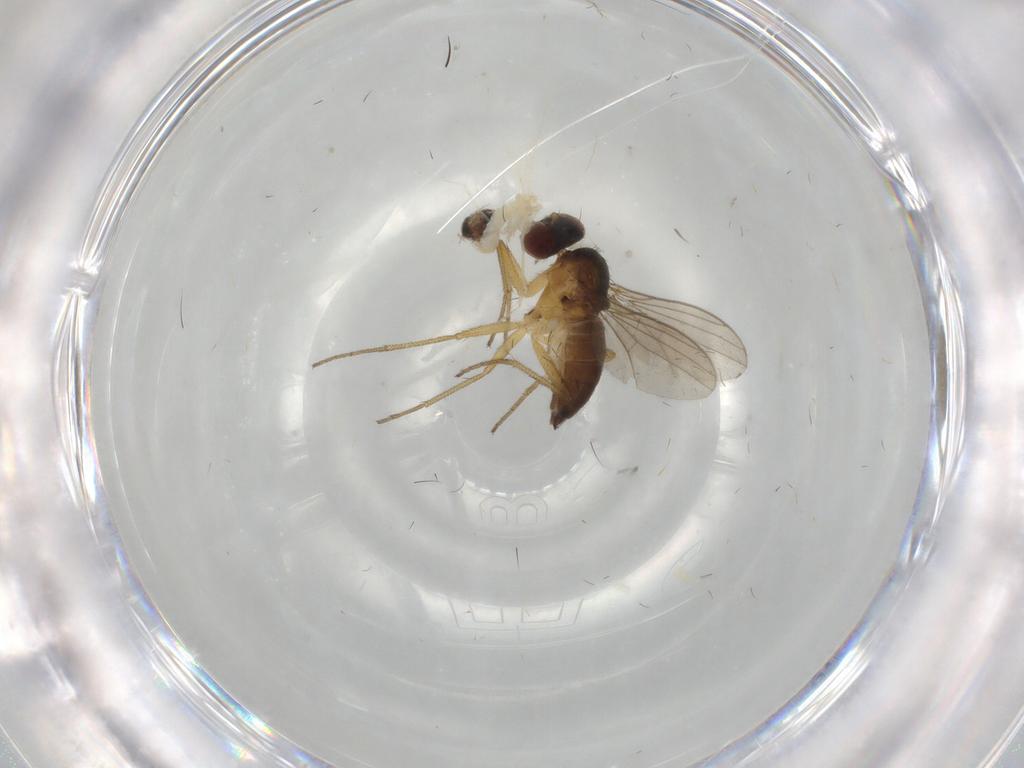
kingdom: Animalia
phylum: Arthropoda
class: Insecta
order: Diptera
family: Dolichopodidae
